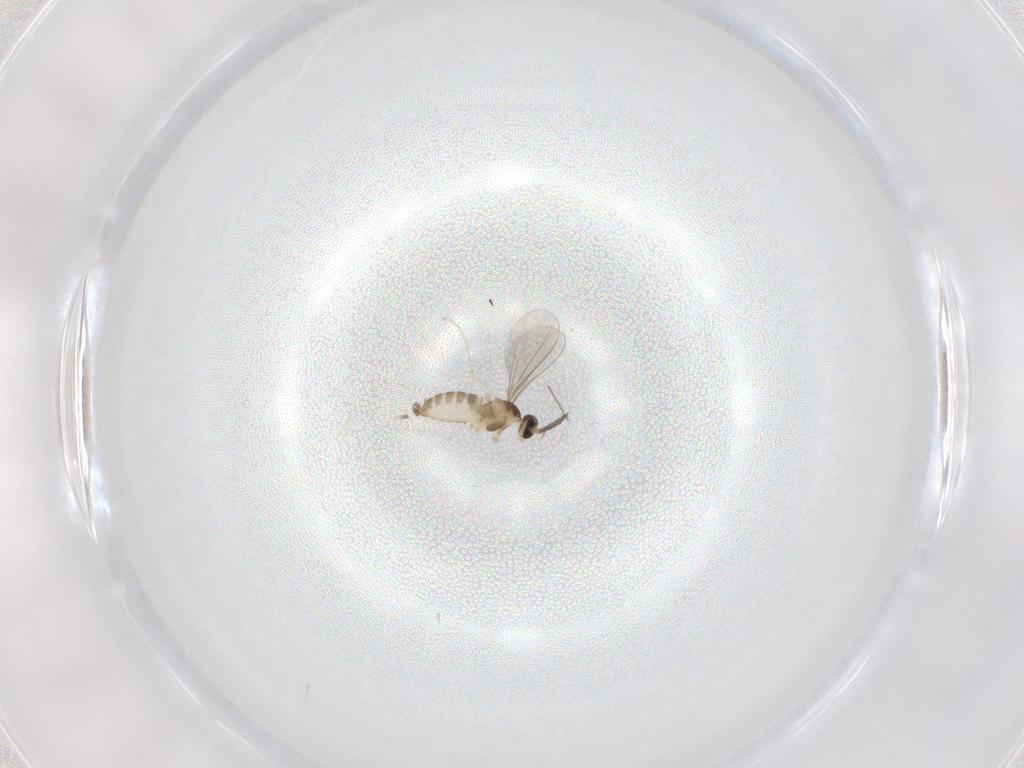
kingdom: Animalia
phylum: Arthropoda
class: Insecta
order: Diptera
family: Cecidomyiidae
